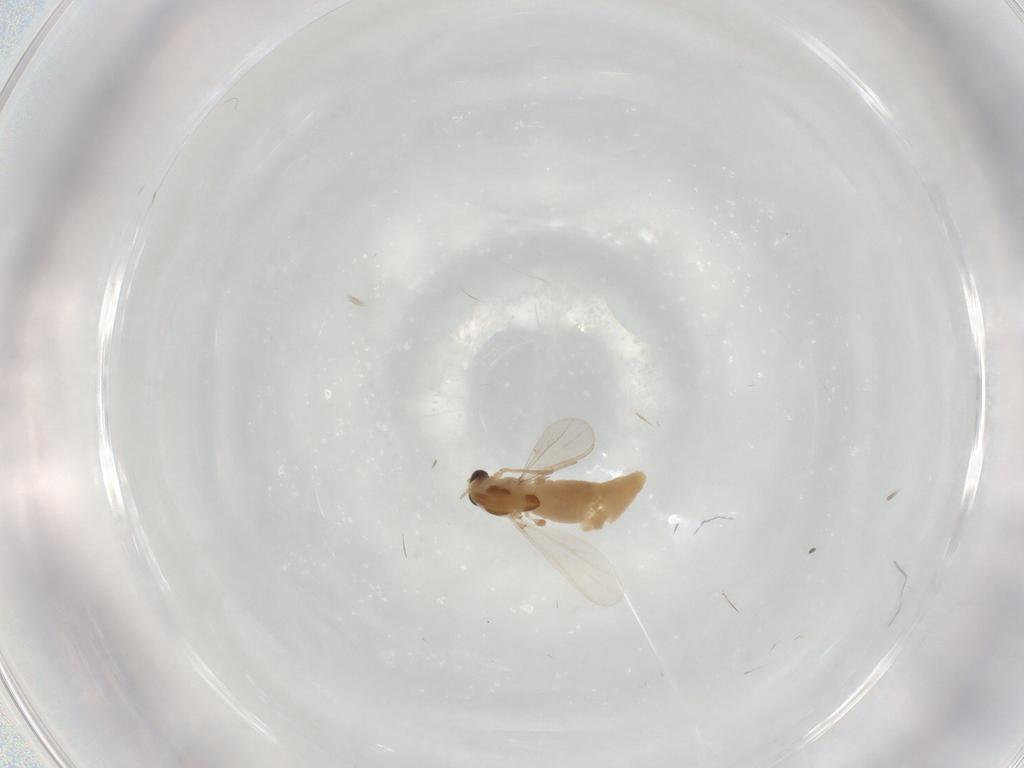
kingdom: Animalia
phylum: Arthropoda
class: Insecta
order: Diptera
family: Chironomidae
